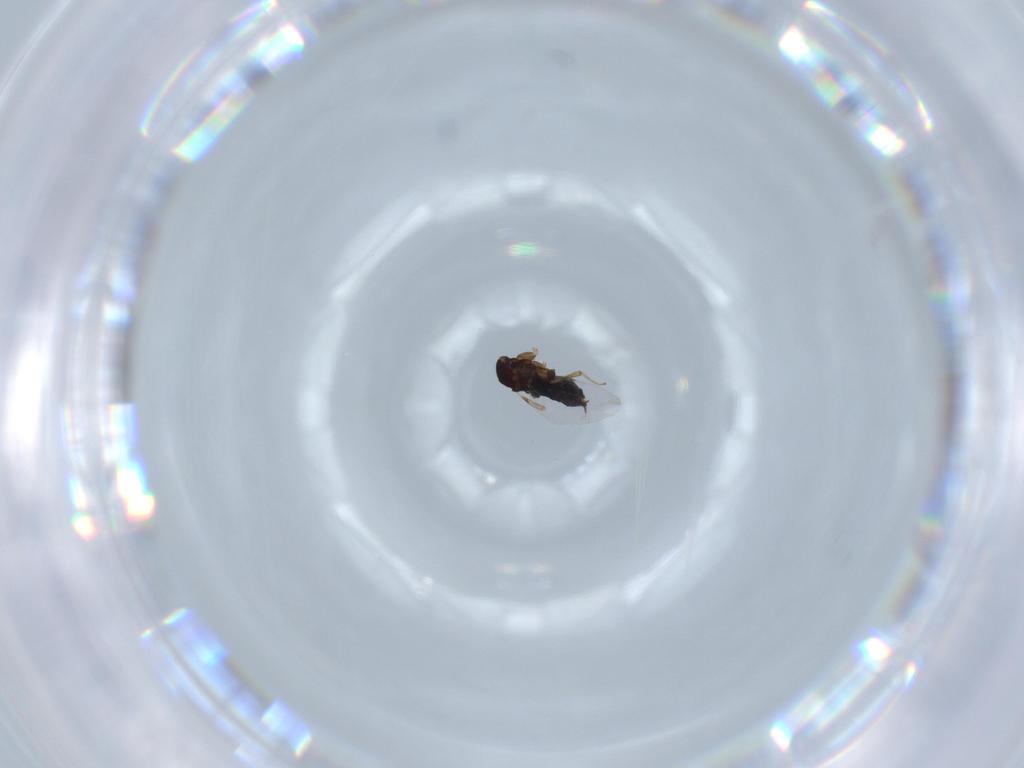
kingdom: Animalia
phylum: Arthropoda
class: Insecta
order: Diptera
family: Scatopsidae
